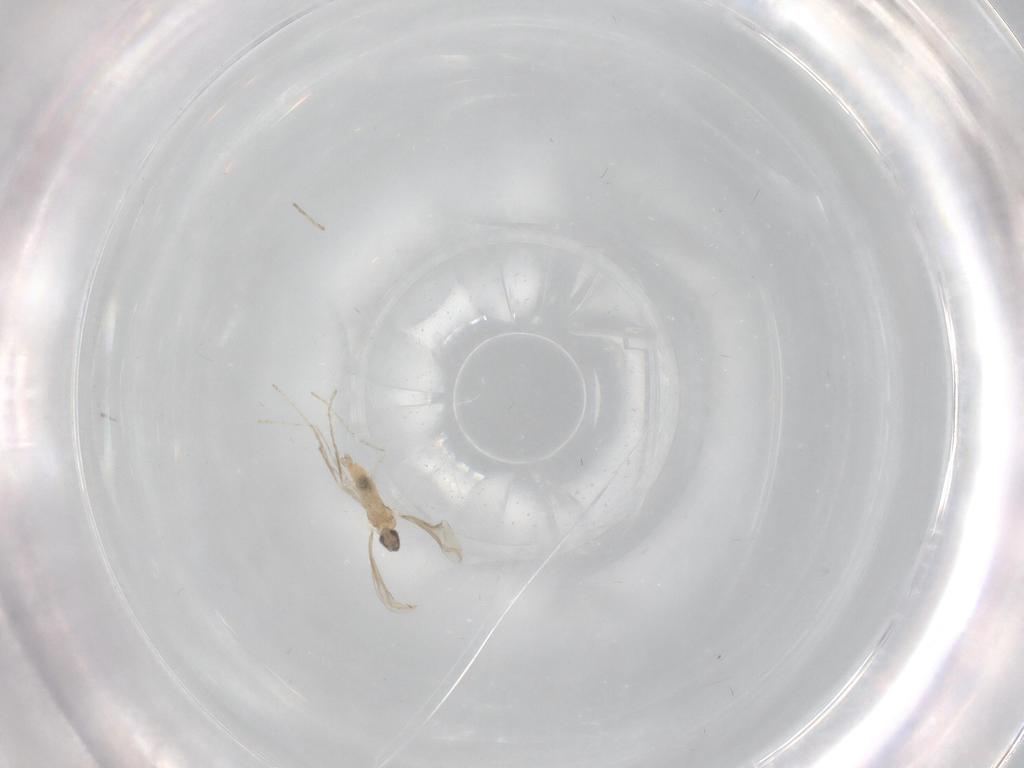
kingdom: Animalia
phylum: Arthropoda
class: Insecta
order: Diptera
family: Cecidomyiidae
